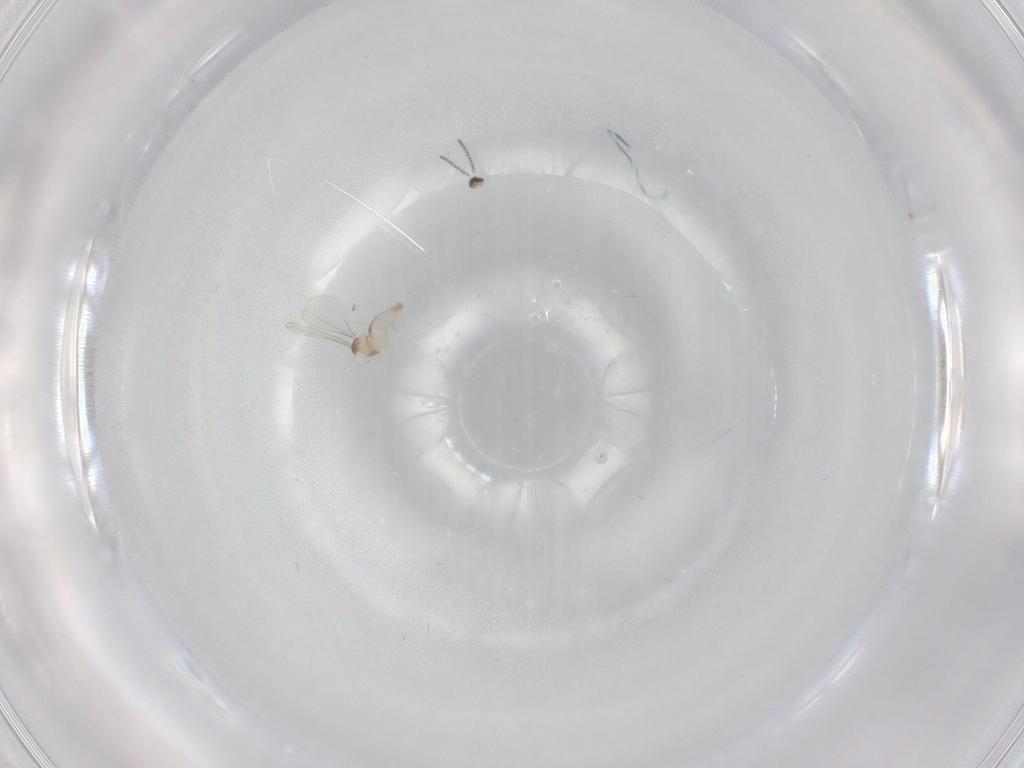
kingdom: Animalia
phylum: Arthropoda
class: Insecta
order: Diptera
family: Cecidomyiidae
